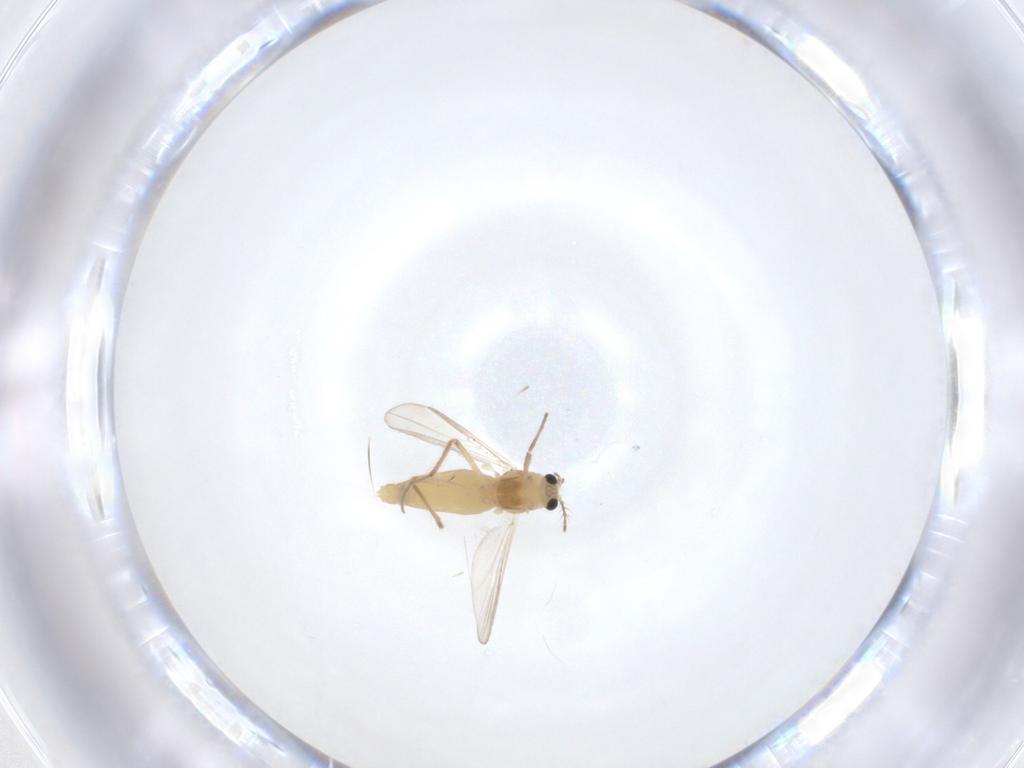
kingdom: Animalia
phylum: Arthropoda
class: Insecta
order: Diptera
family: Chironomidae
